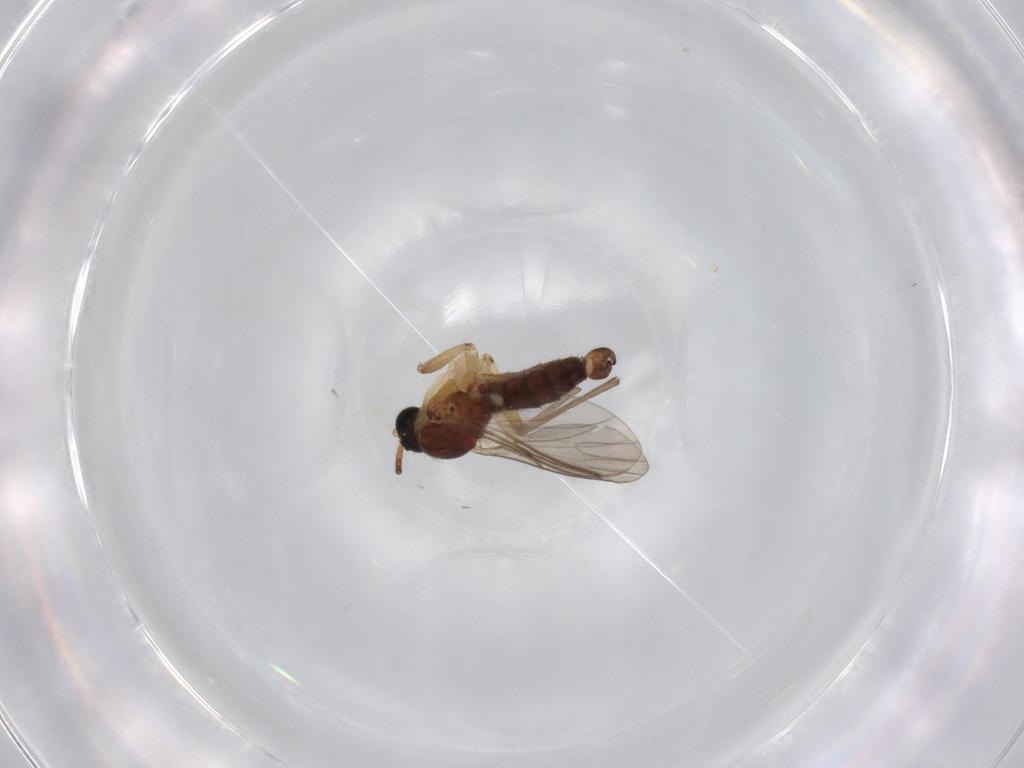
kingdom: Animalia
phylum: Arthropoda
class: Insecta
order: Diptera
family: Sciaridae
